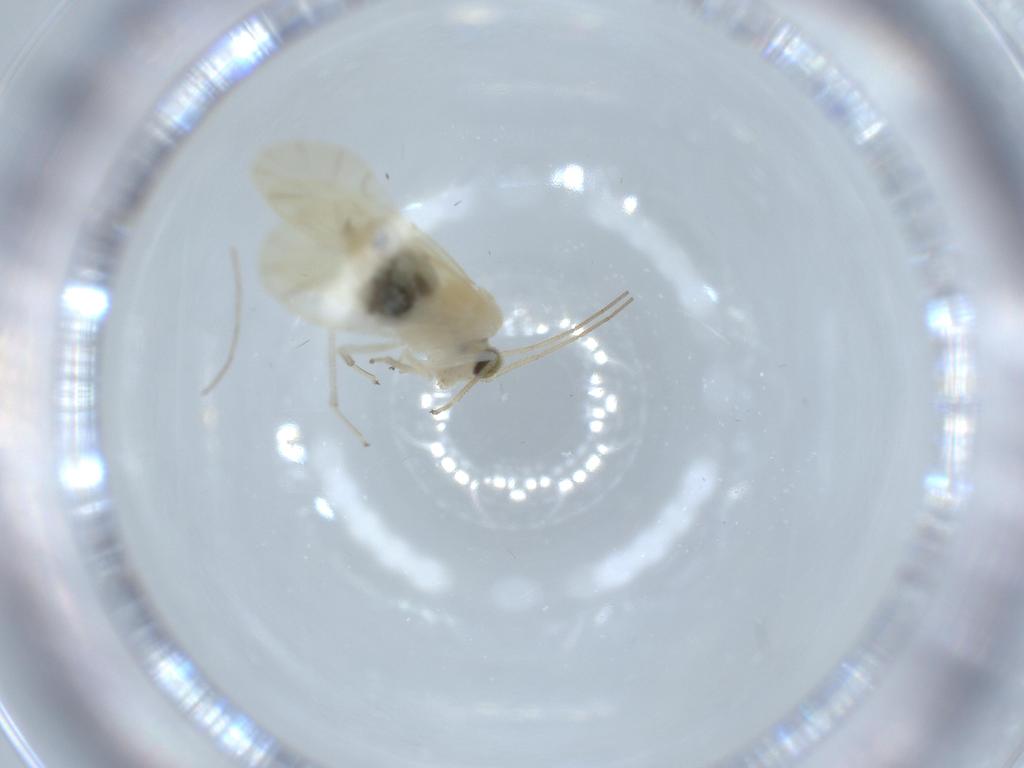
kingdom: Animalia
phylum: Arthropoda
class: Insecta
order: Psocodea
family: Caeciliusidae
